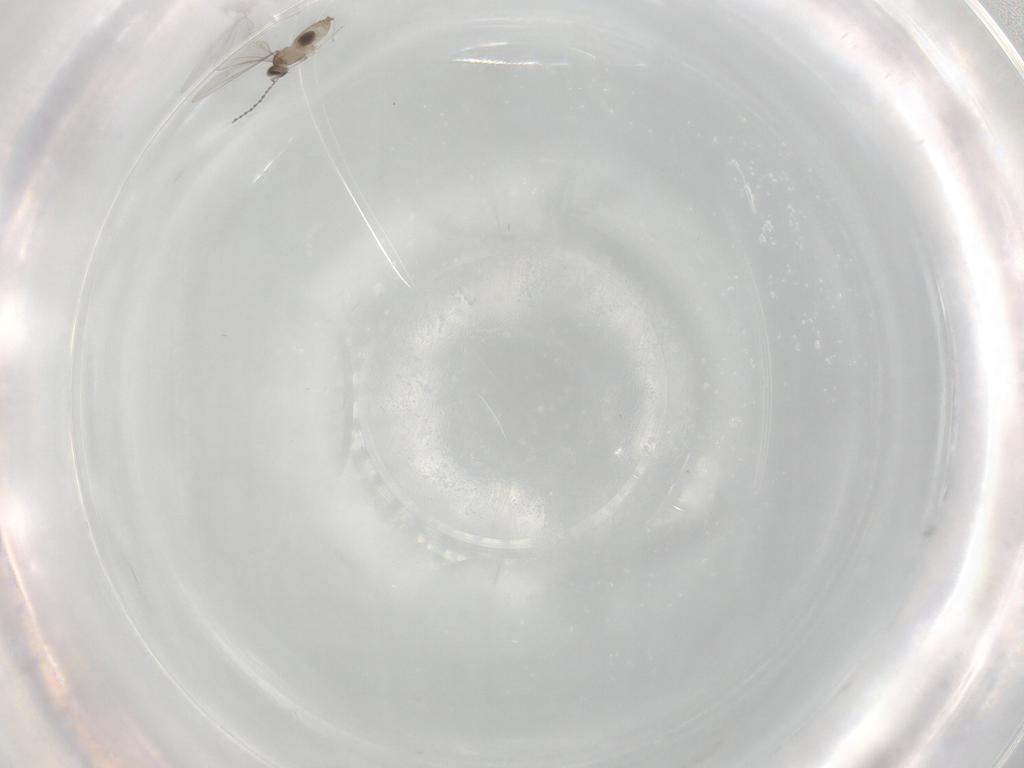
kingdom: Animalia
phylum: Arthropoda
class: Insecta
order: Diptera
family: Cecidomyiidae
